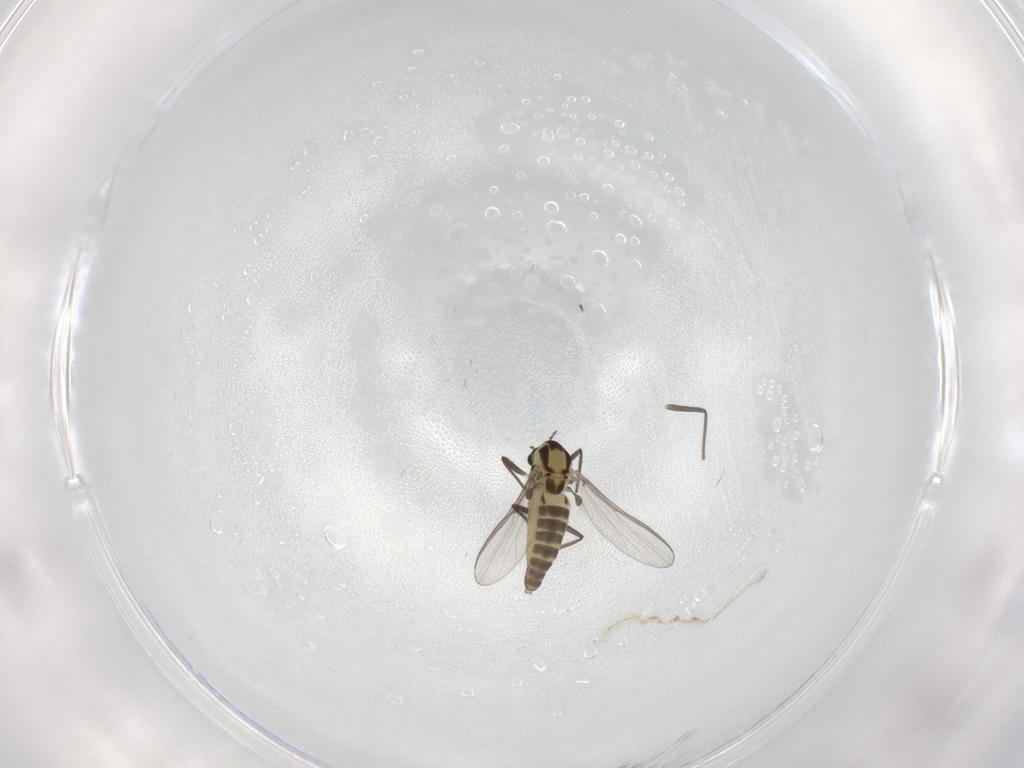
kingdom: Animalia
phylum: Arthropoda
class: Insecta
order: Diptera
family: Chironomidae
